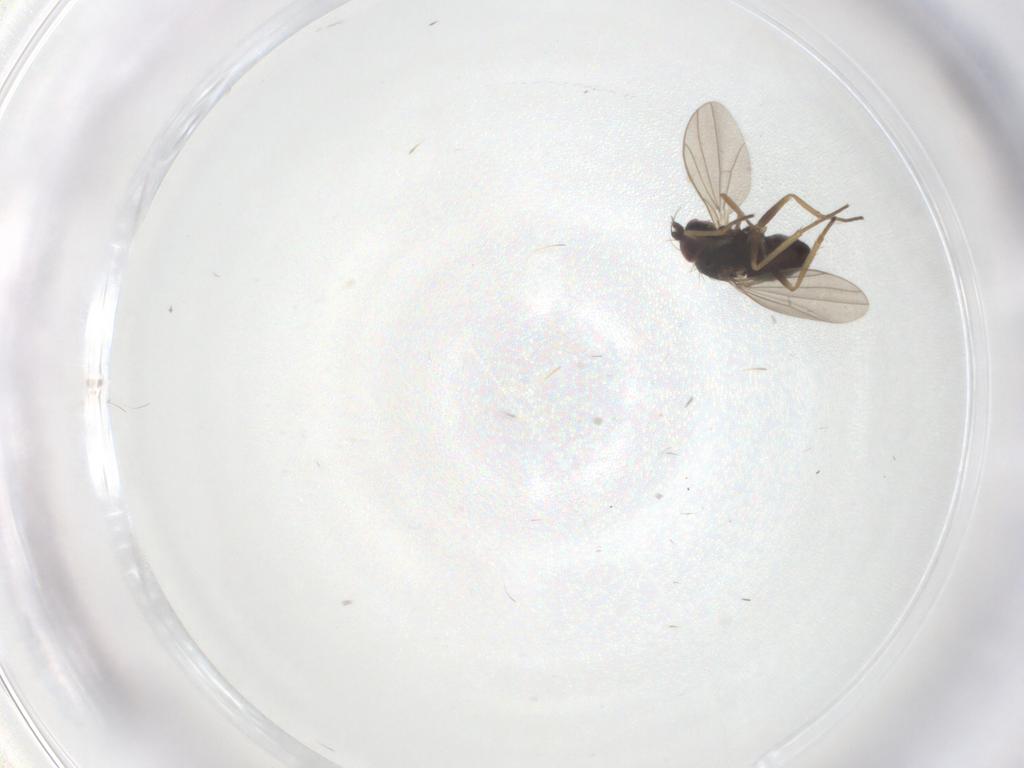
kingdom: Animalia
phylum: Arthropoda
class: Insecta
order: Diptera
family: Dolichopodidae
